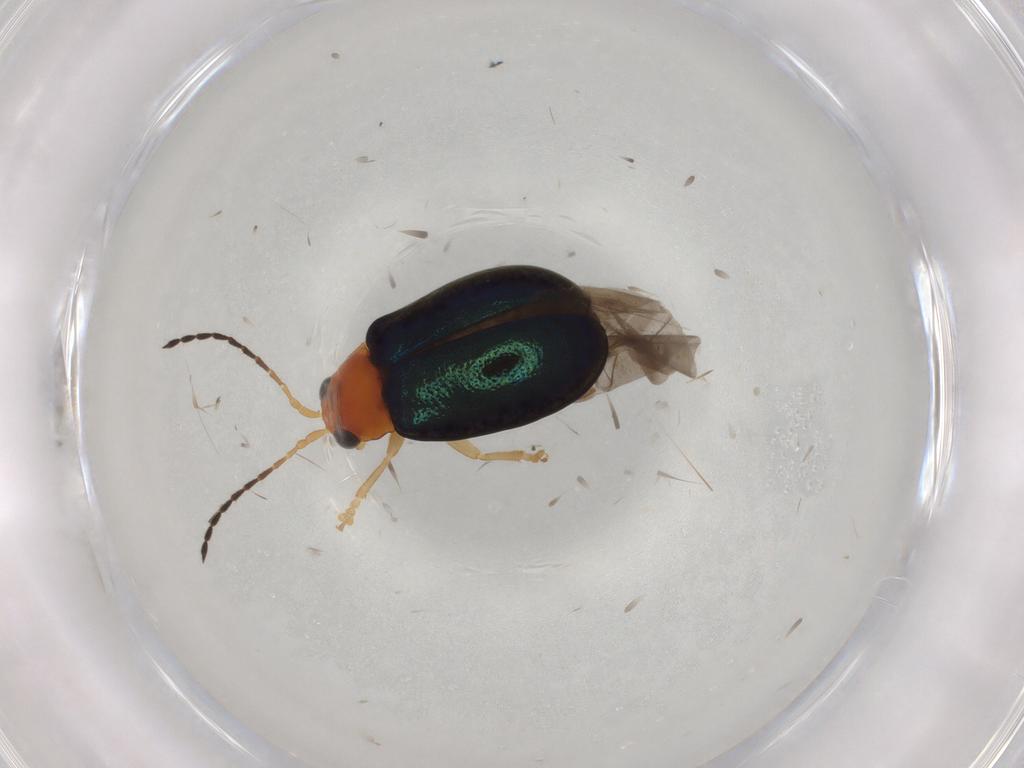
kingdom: Animalia
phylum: Arthropoda
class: Insecta
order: Coleoptera
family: Chrysomelidae
